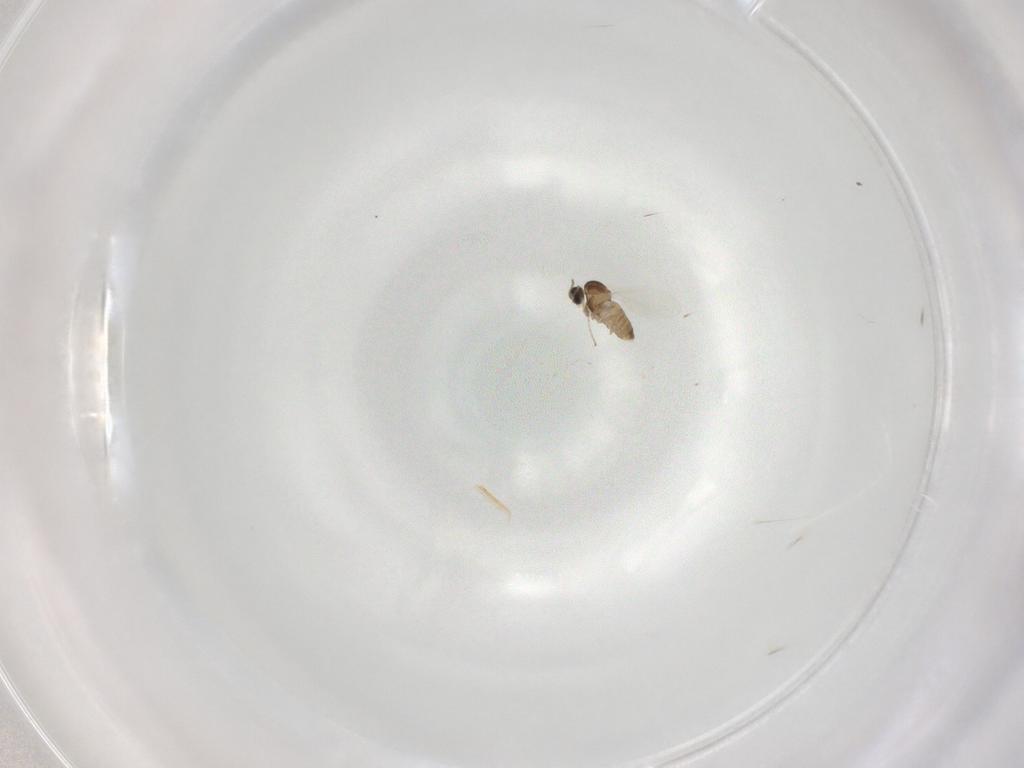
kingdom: Animalia
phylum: Arthropoda
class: Insecta
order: Diptera
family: Cecidomyiidae
